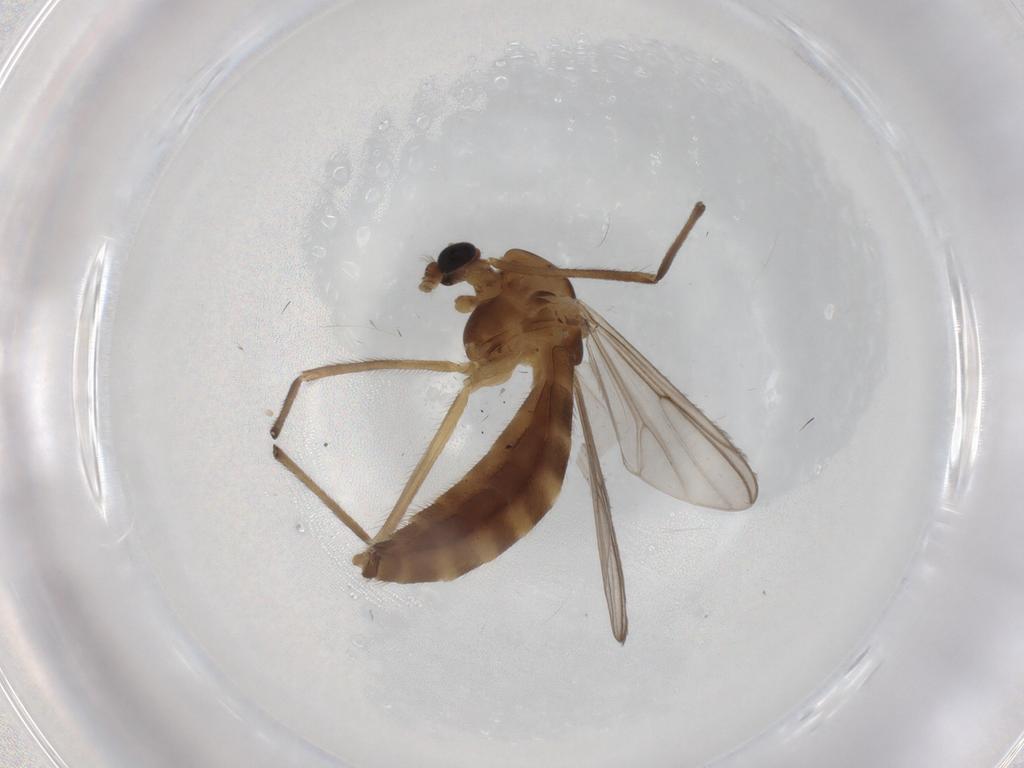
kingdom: Animalia
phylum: Arthropoda
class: Insecta
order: Diptera
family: Chironomidae
